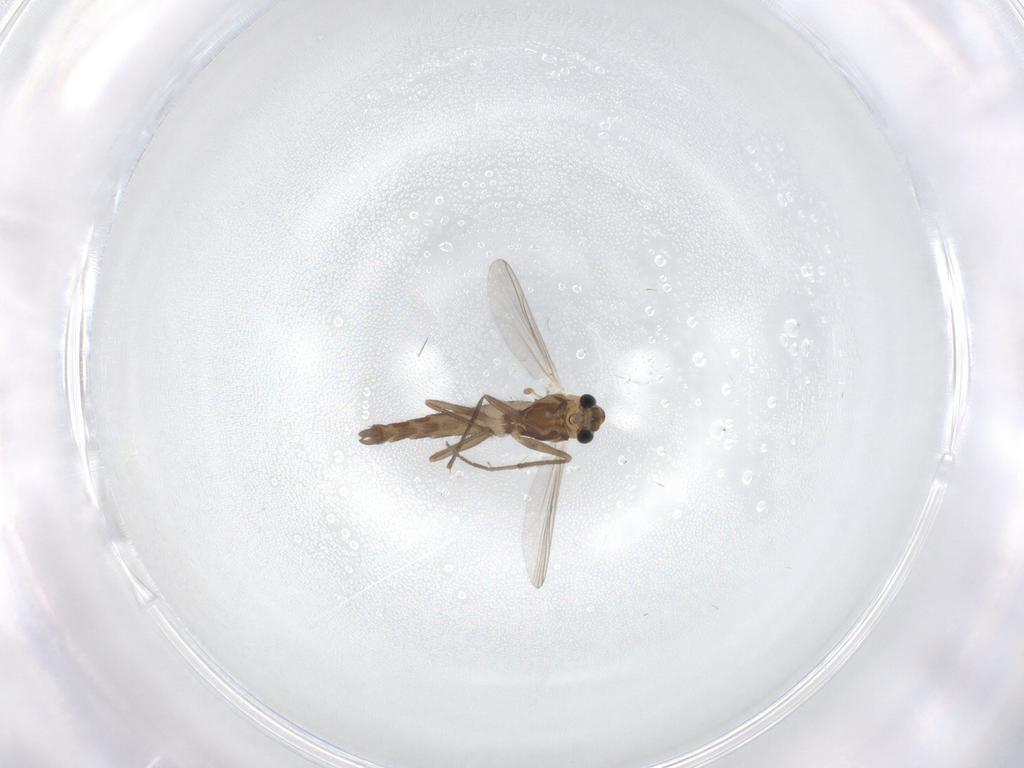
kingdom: Animalia
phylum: Arthropoda
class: Insecta
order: Diptera
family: Chironomidae
